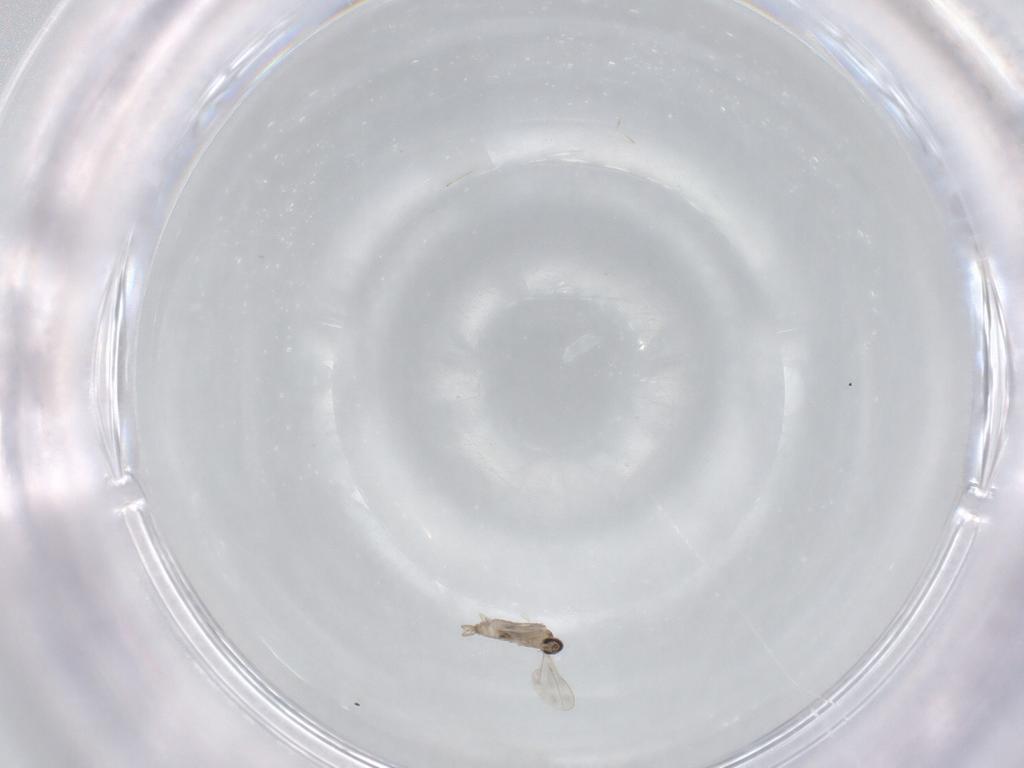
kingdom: Animalia
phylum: Arthropoda
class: Insecta
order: Diptera
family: Cecidomyiidae
